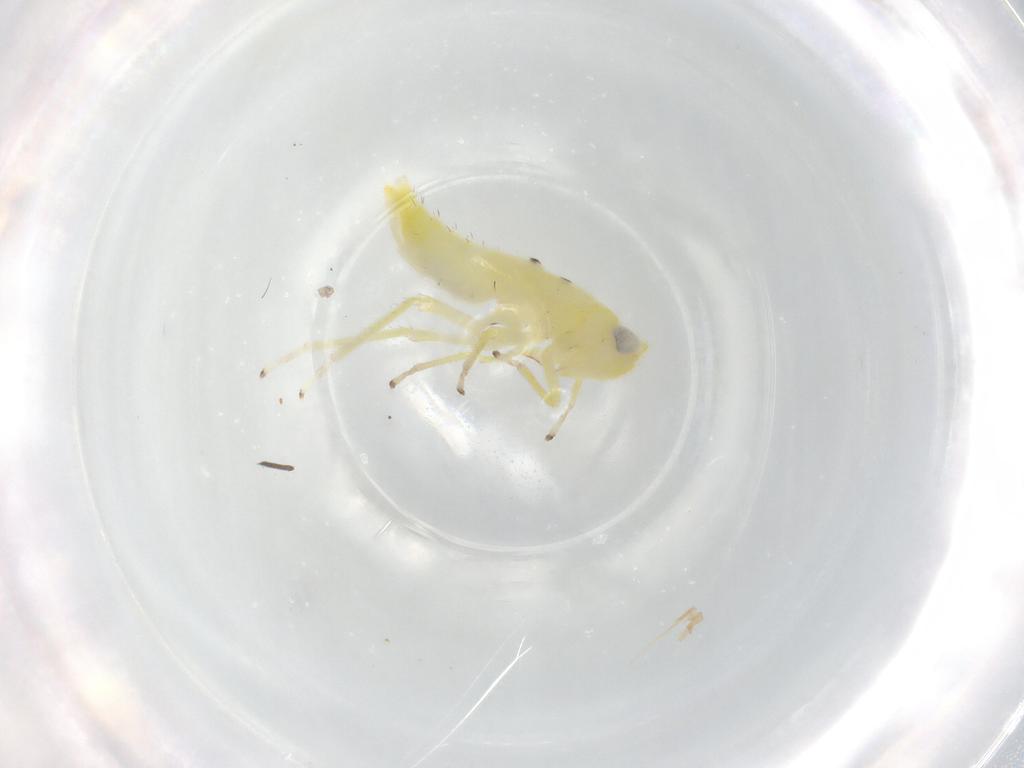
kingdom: Animalia
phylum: Arthropoda
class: Insecta
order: Hemiptera
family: Cicadellidae
